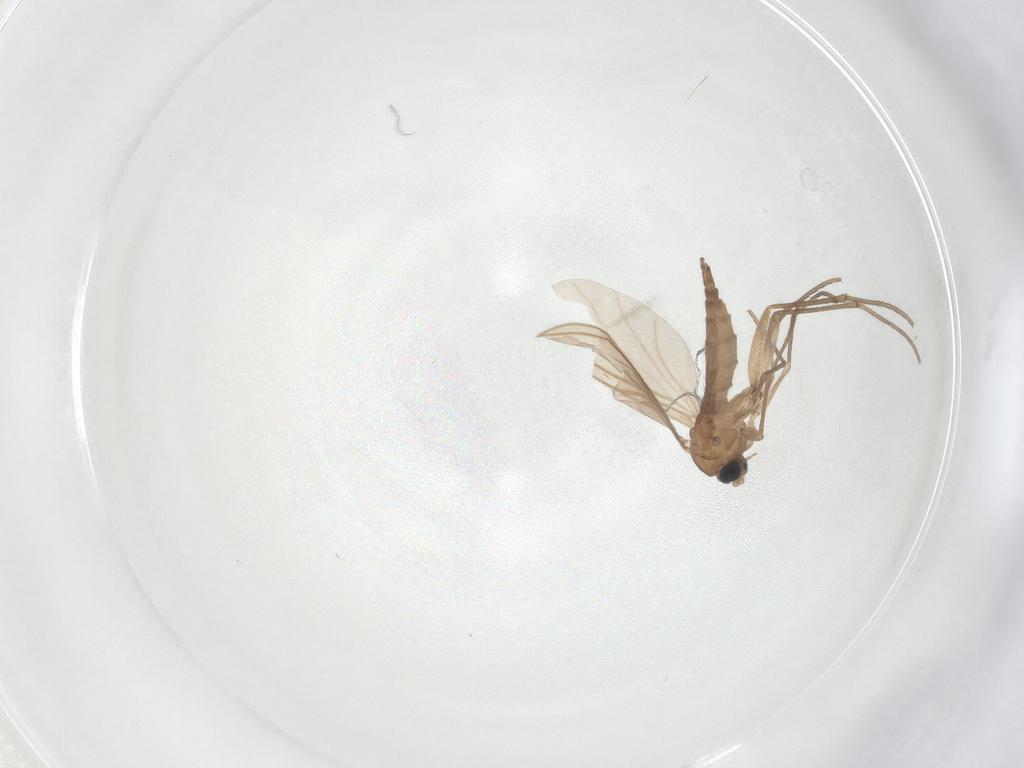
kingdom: Animalia
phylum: Arthropoda
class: Insecta
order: Diptera
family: Sciaridae
